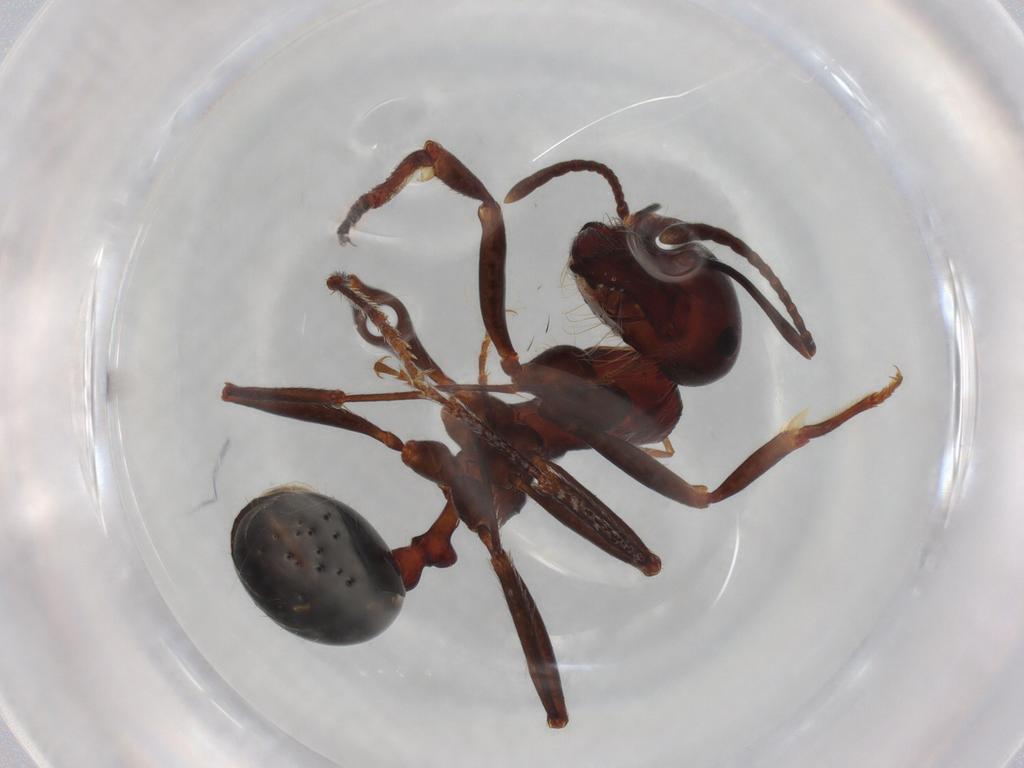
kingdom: Animalia
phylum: Arthropoda
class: Insecta
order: Hymenoptera
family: Formicidae
